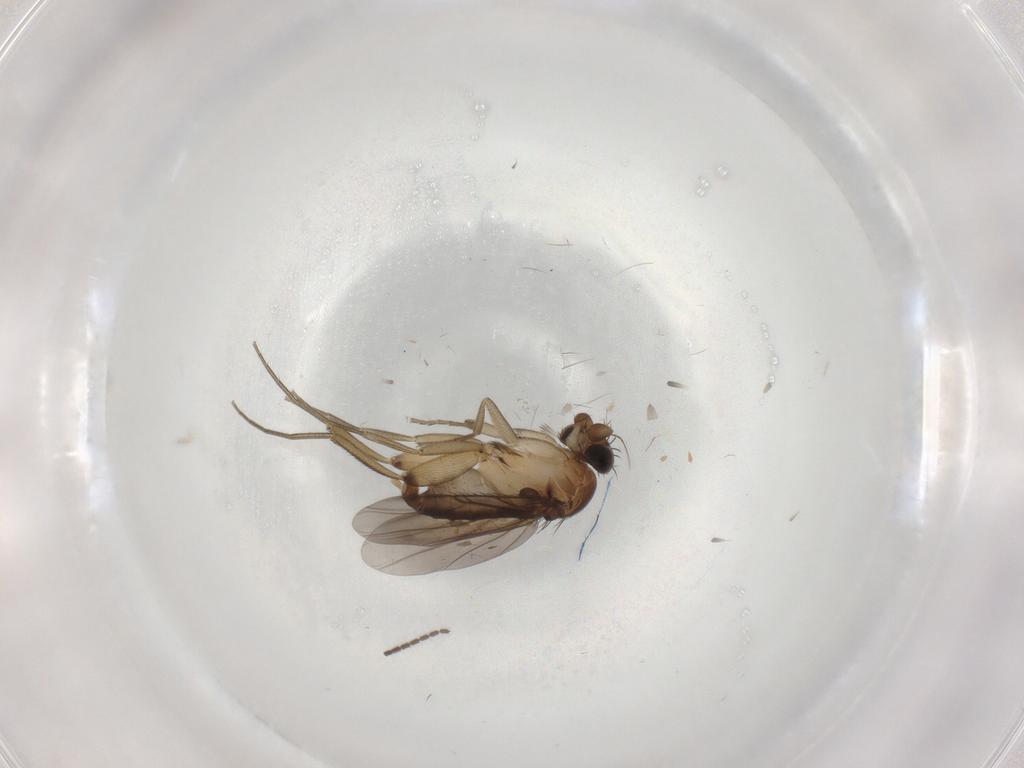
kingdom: Animalia
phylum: Arthropoda
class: Insecta
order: Diptera
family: Sciaridae
